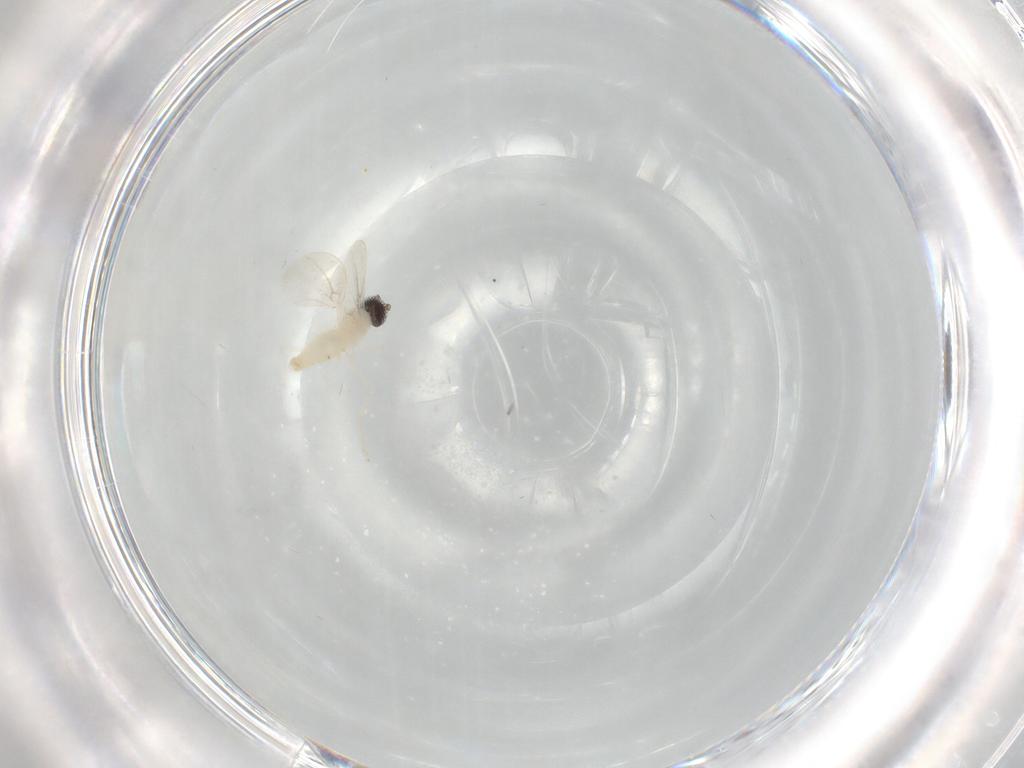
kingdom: Animalia
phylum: Arthropoda
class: Insecta
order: Diptera
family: Cecidomyiidae
